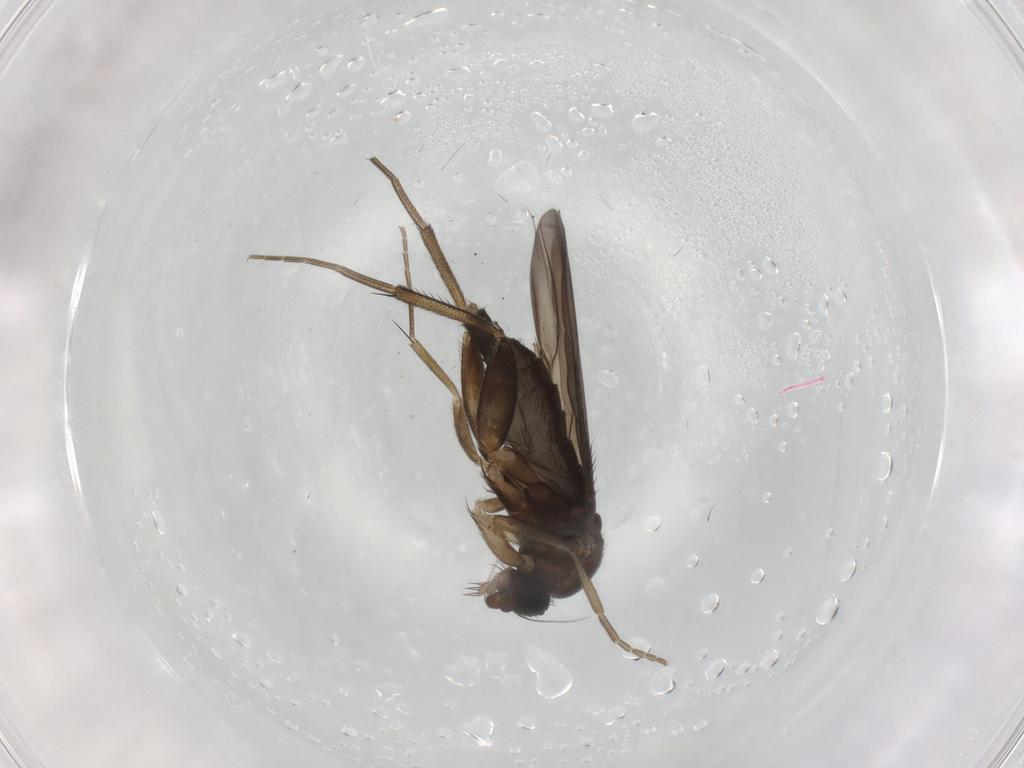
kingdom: Animalia
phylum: Arthropoda
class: Insecta
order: Diptera
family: Phoridae
